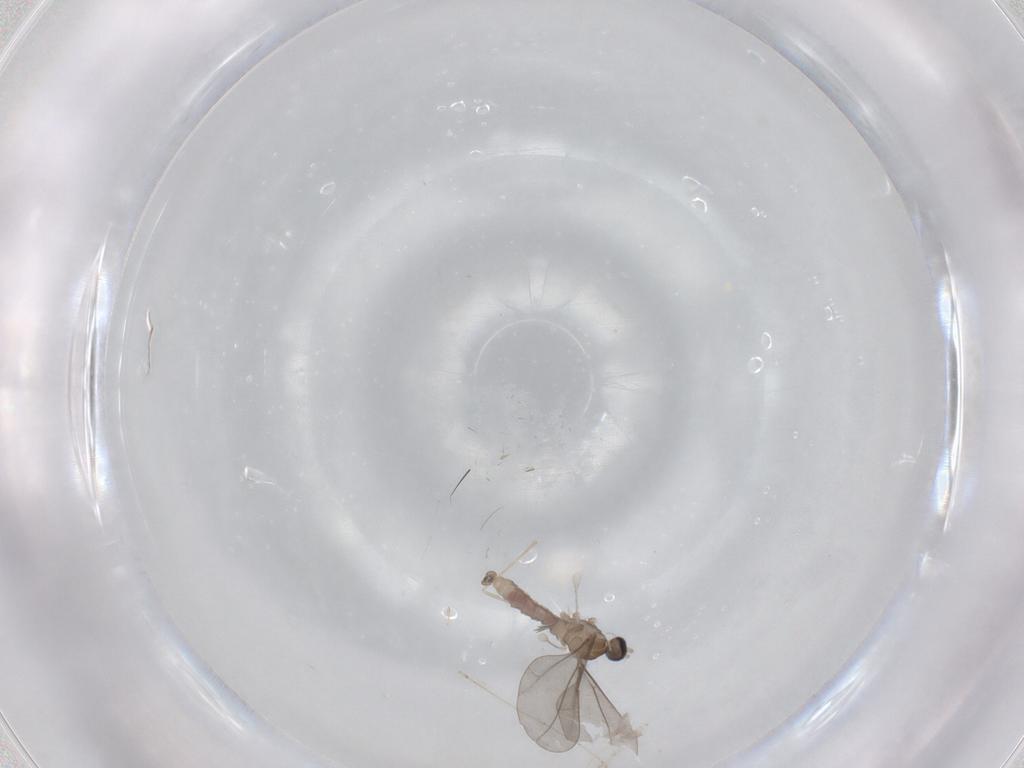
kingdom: Animalia
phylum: Arthropoda
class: Insecta
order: Diptera
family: Cecidomyiidae
